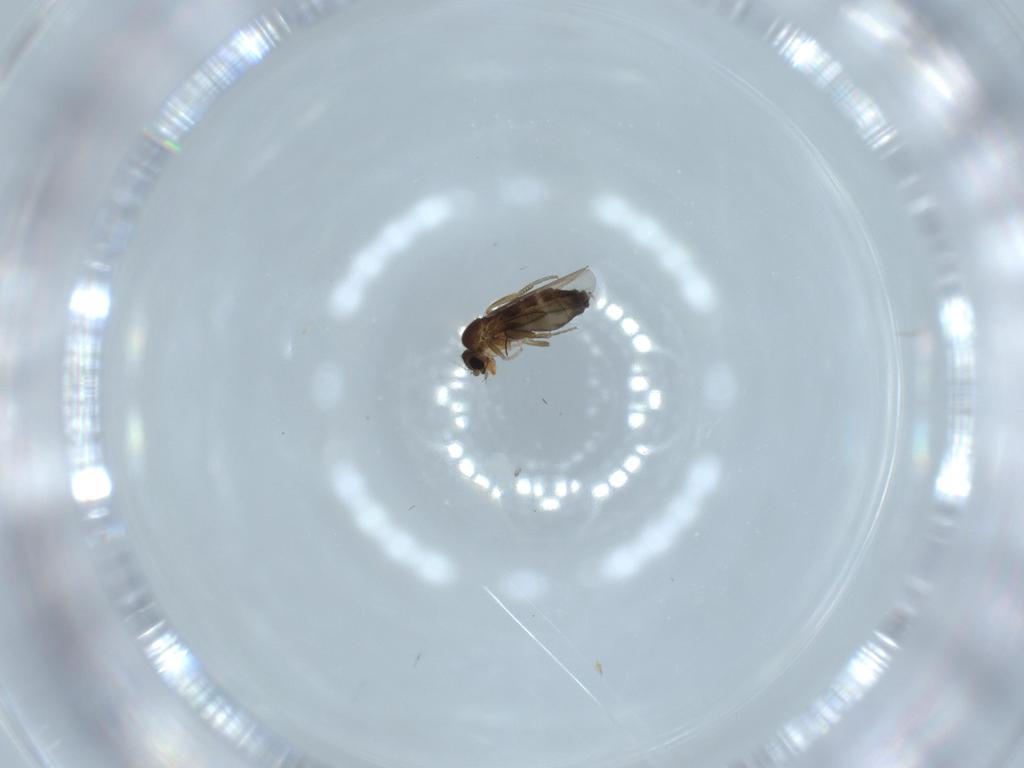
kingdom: Animalia
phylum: Arthropoda
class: Insecta
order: Diptera
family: Phoridae
